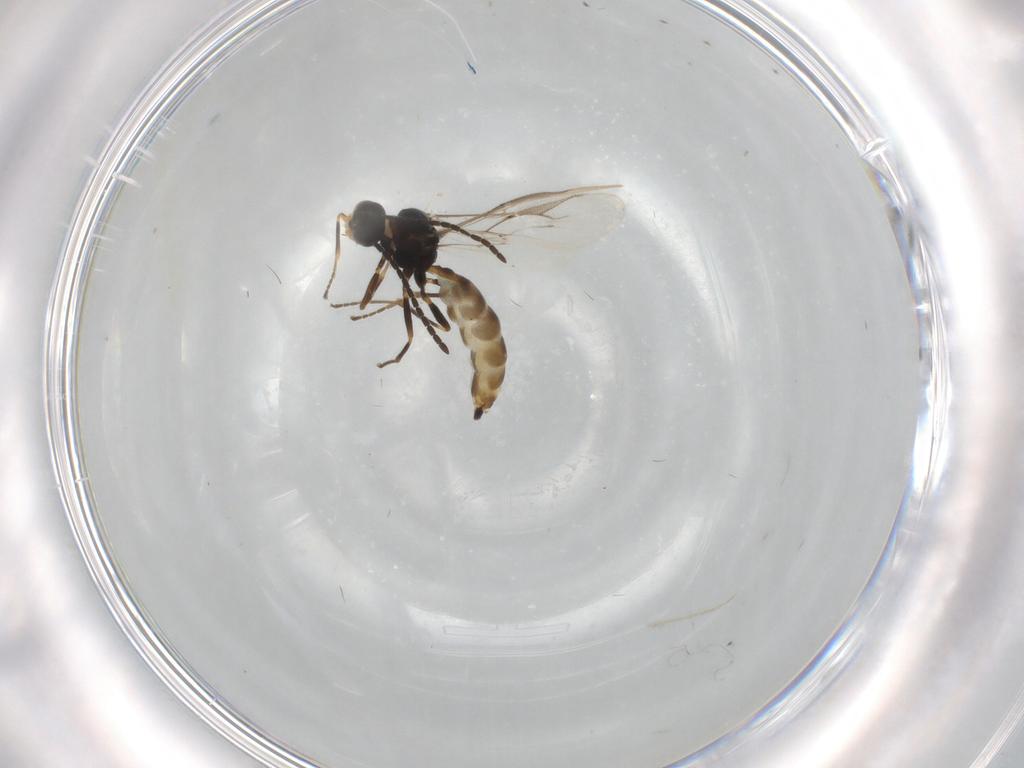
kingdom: Animalia
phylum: Arthropoda
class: Insecta
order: Hymenoptera
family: Braconidae
